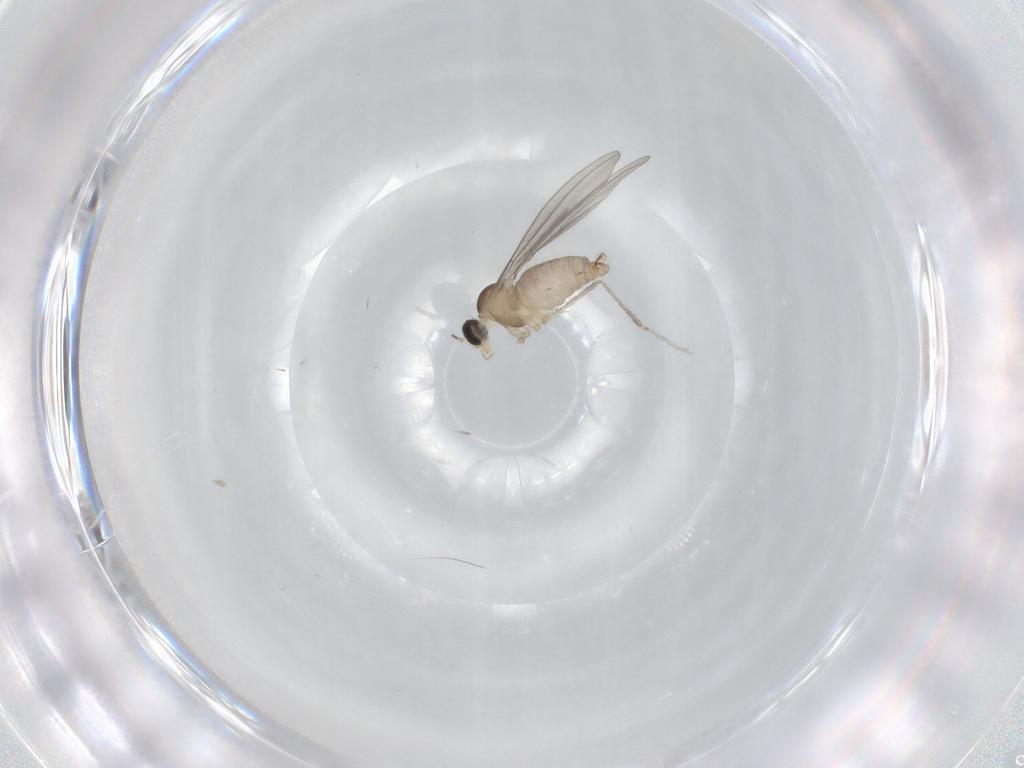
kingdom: Animalia
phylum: Arthropoda
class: Insecta
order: Diptera
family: Cecidomyiidae
